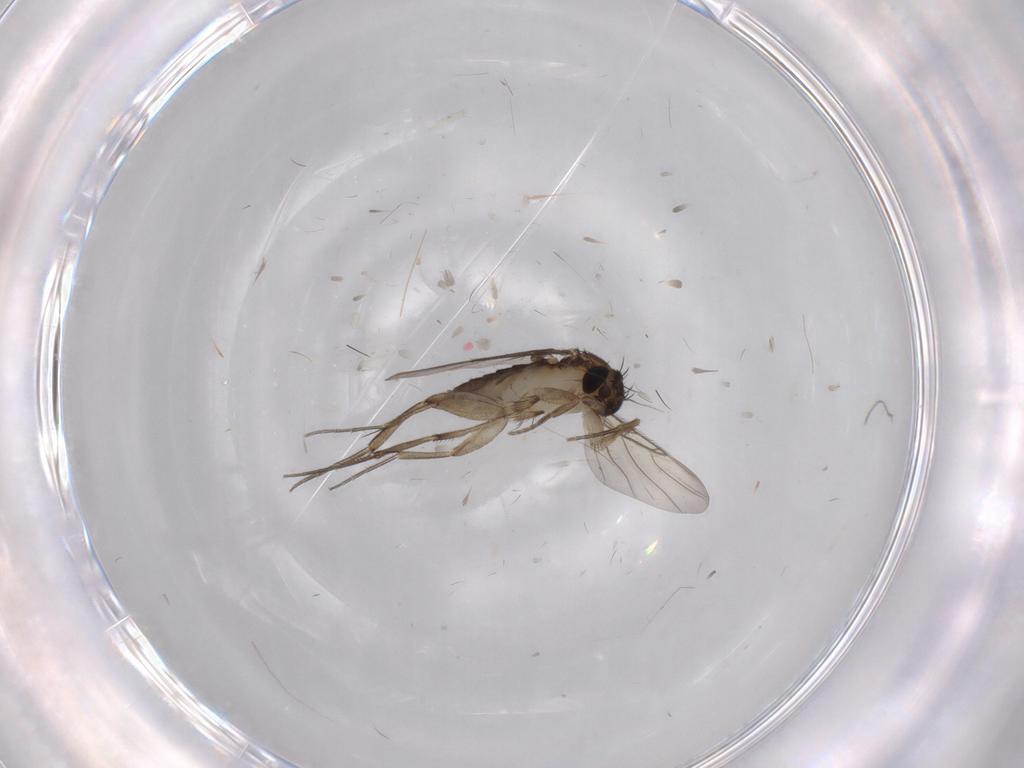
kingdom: Animalia
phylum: Arthropoda
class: Insecta
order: Diptera
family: Phoridae
